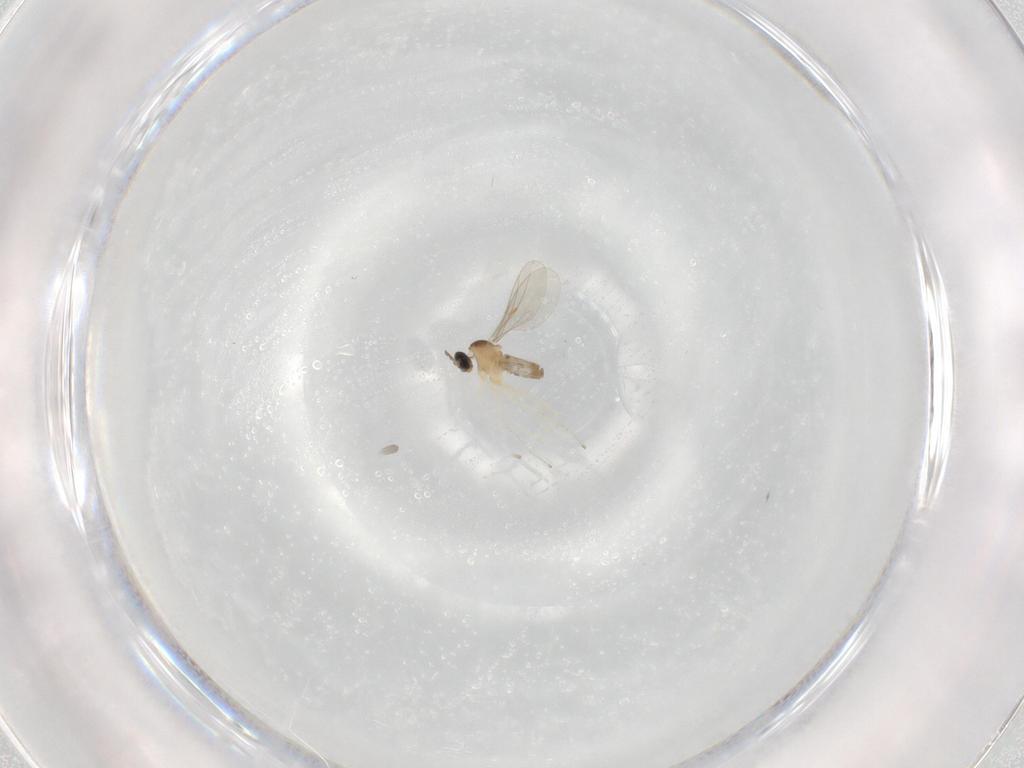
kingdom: Animalia
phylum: Arthropoda
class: Insecta
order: Diptera
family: Cecidomyiidae
